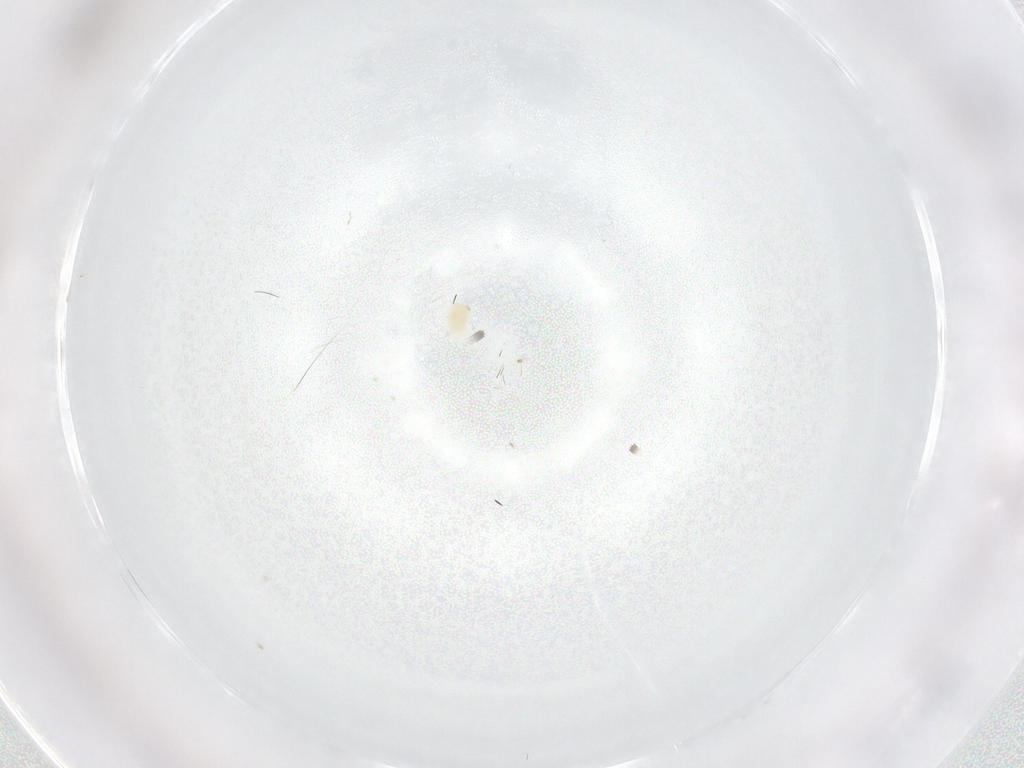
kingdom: Animalia
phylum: Arthropoda
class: Arachnida
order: Trombidiformes
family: Tetranychidae
